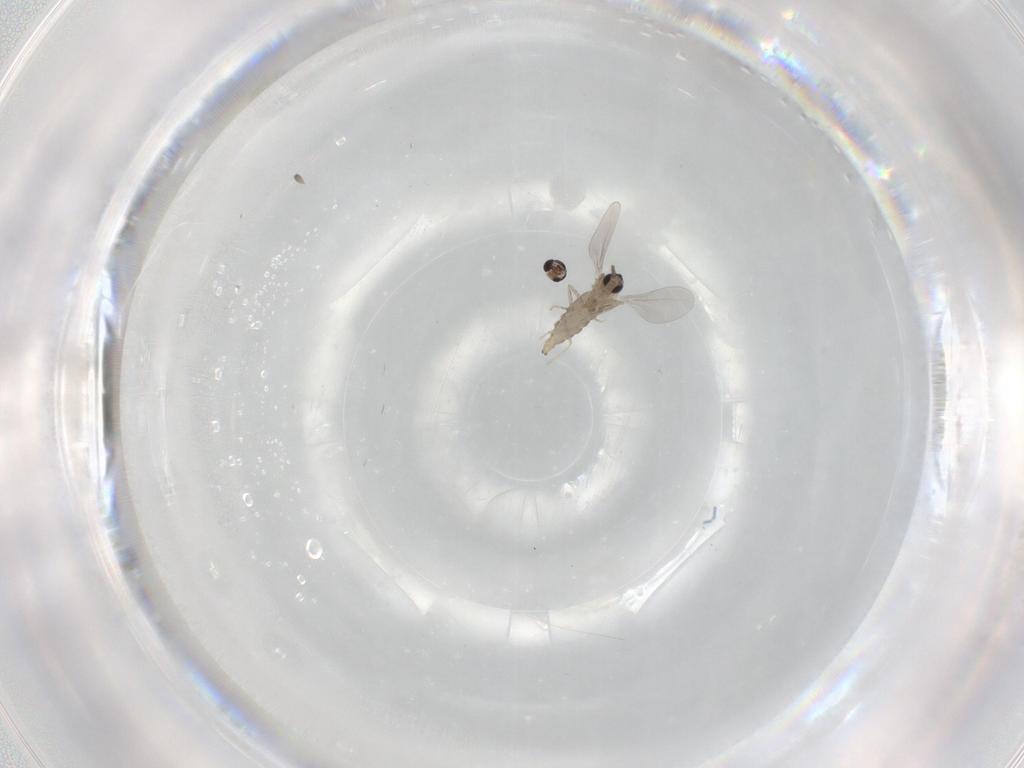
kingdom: Animalia
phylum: Arthropoda
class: Insecta
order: Diptera
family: Cecidomyiidae
